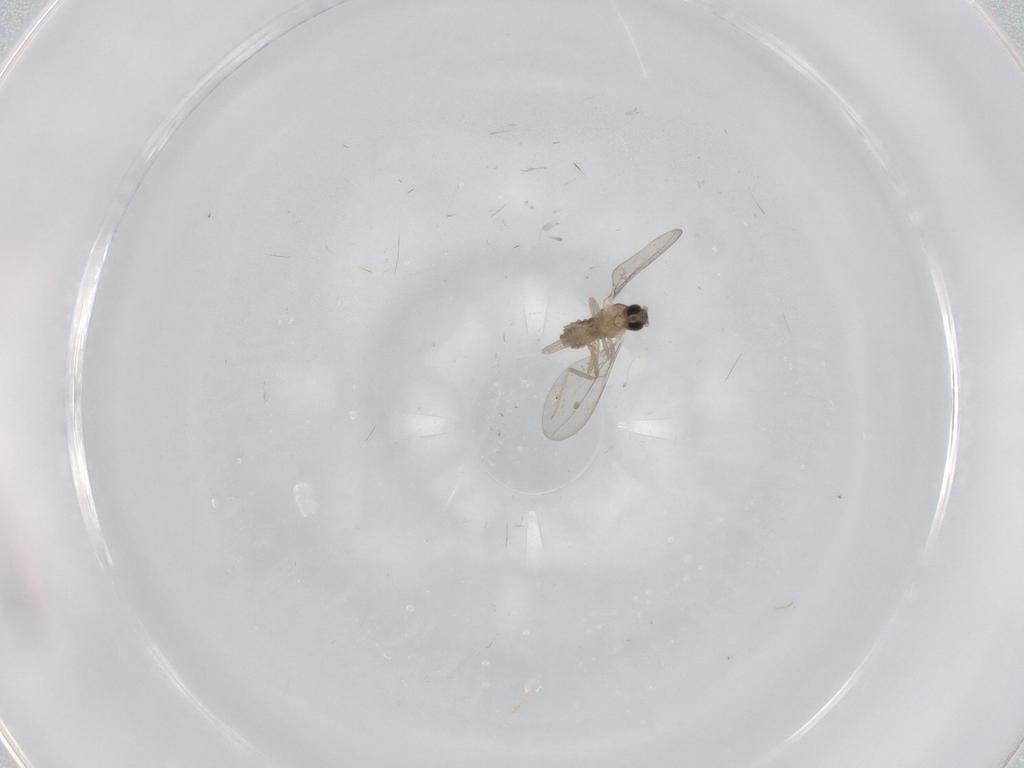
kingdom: Animalia
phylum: Arthropoda
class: Insecta
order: Diptera
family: Cecidomyiidae
